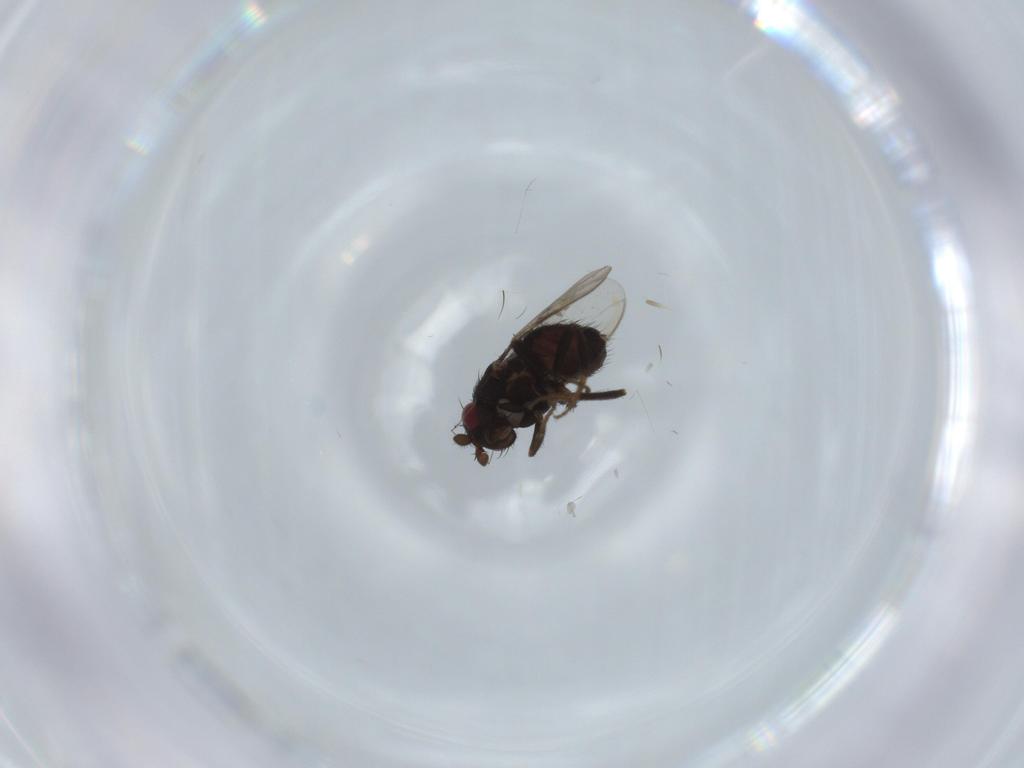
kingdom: Animalia
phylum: Arthropoda
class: Insecta
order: Diptera
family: Sphaeroceridae
